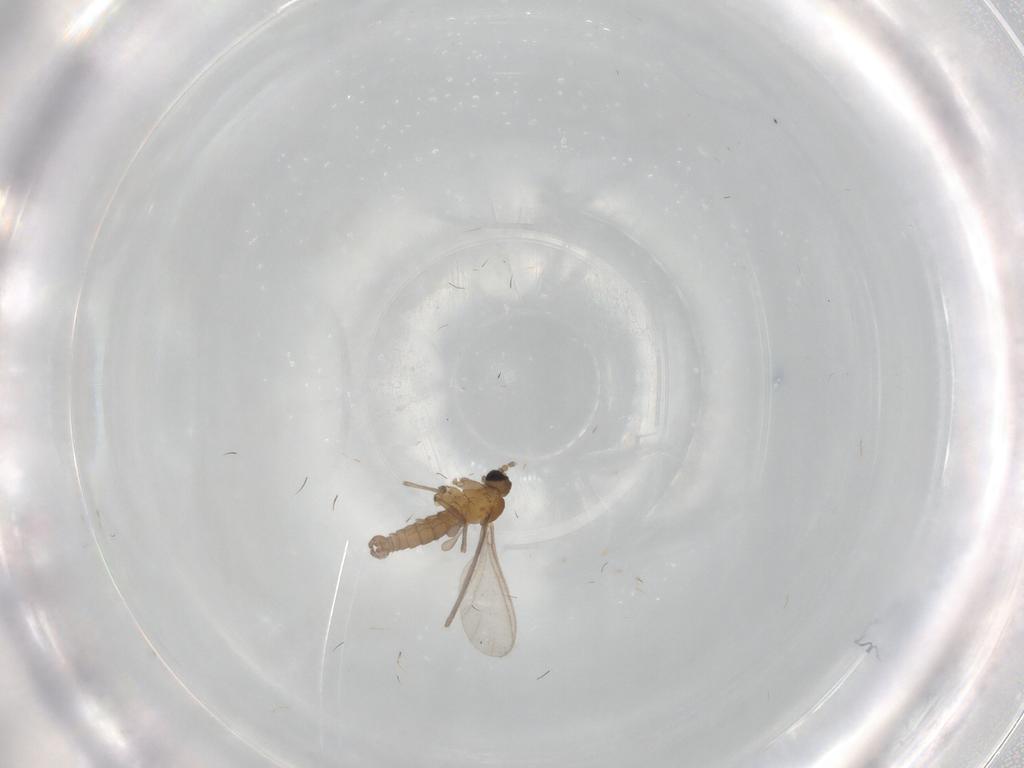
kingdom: Animalia
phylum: Arthropoda
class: Insecta
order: Diptera
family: Sciaridae
